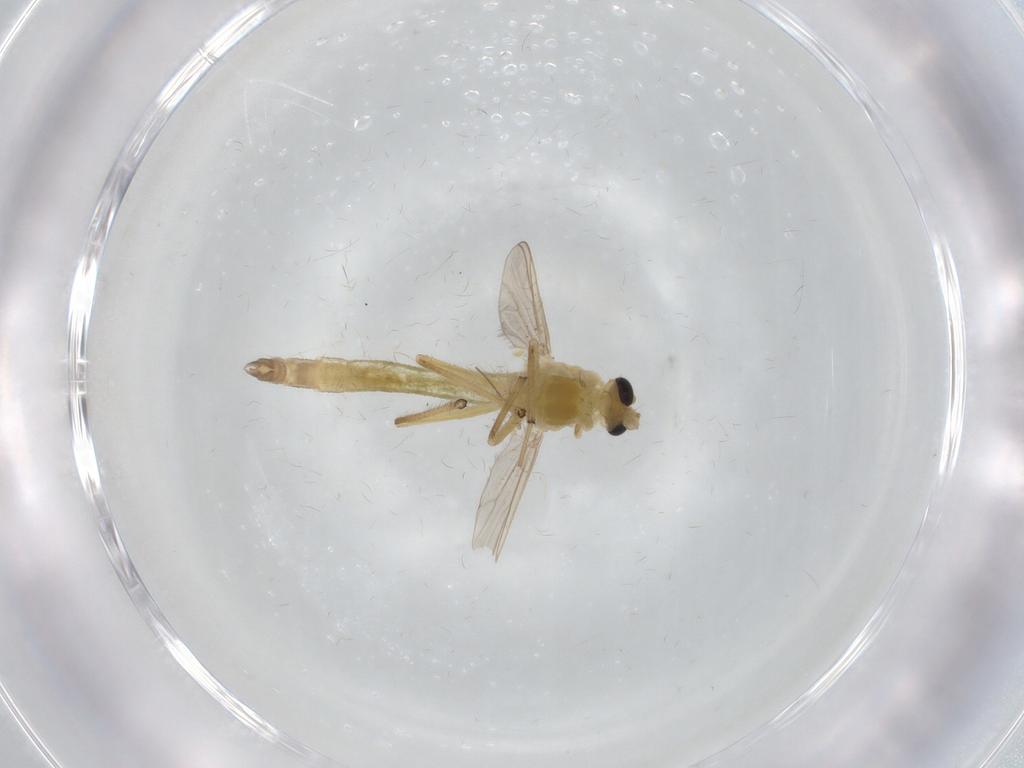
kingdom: Animalia
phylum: Arthropoda
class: Insecta
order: Diptera
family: Chironomidae
